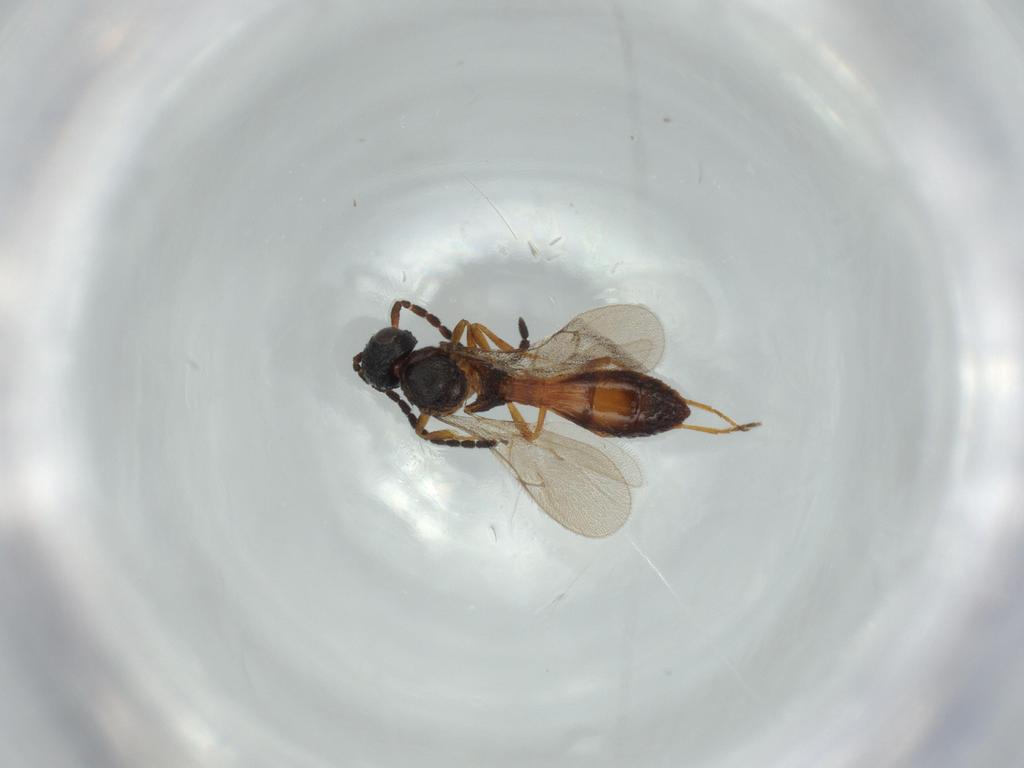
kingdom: Animalia
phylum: Arthropoda
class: Insecta
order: Hymenoptera
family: Scelionidae
